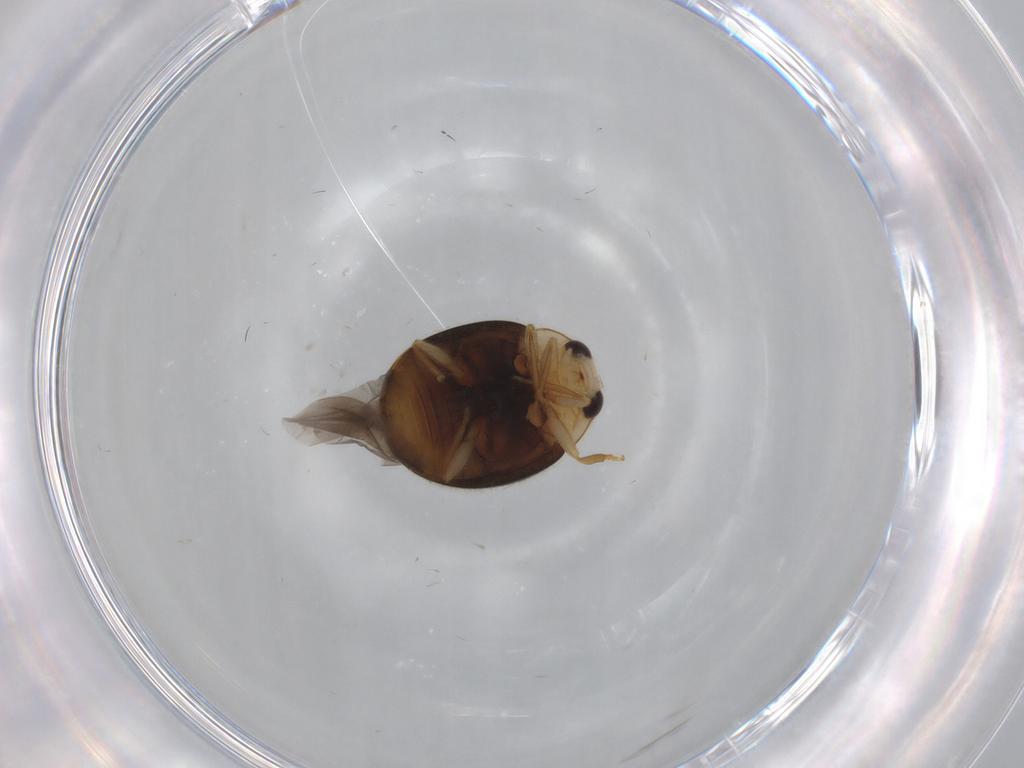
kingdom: Animalia
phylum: Arthropoda
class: Insecta
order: Coleoptera
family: Coccinellidae
